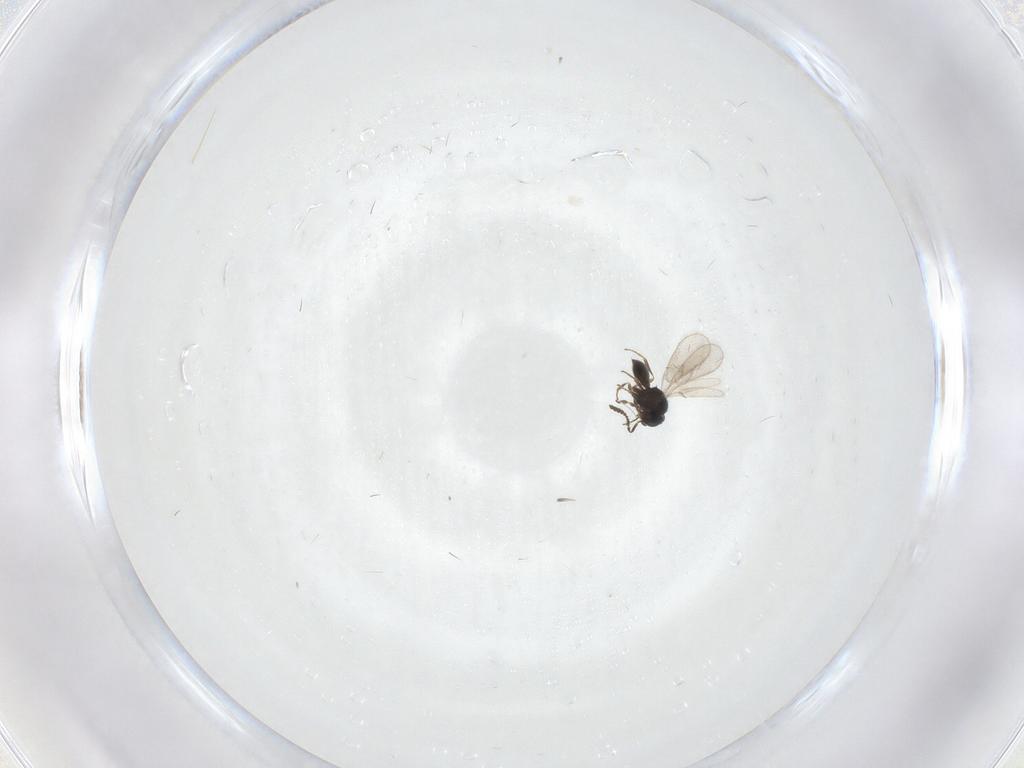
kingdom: Animalia
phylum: Arthropoda
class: Insecta
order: Hymenoptera
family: Scelionidae
